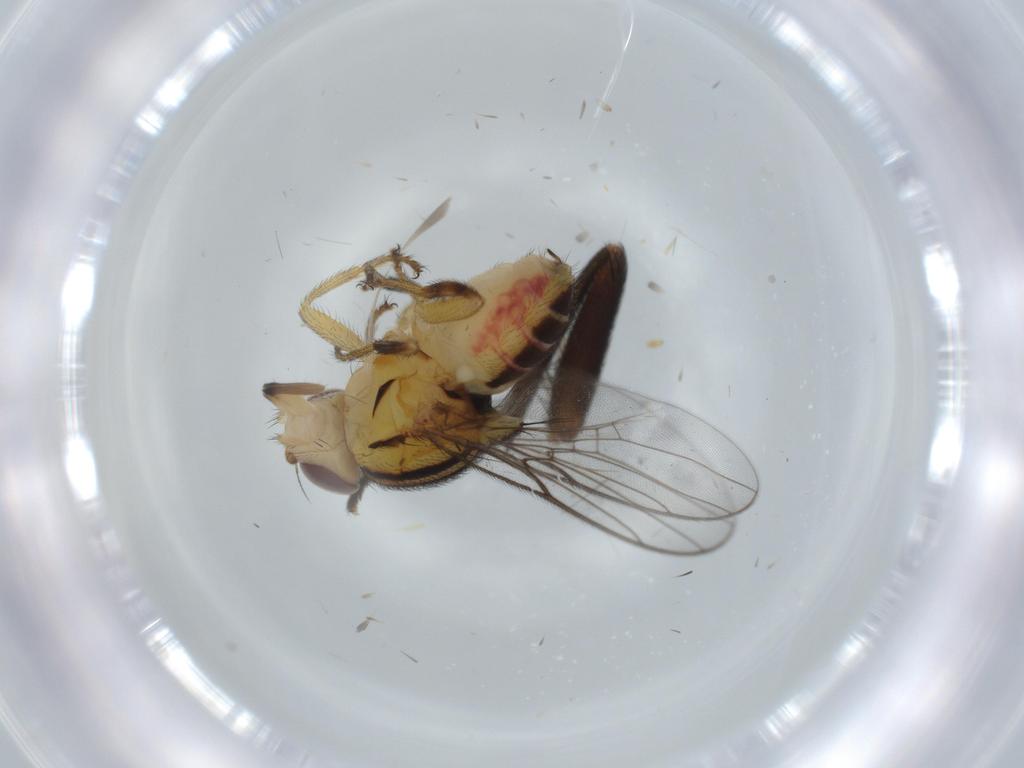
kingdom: Animalia
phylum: Arthropoda
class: Insecta
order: Diptera
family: Chloropidae
